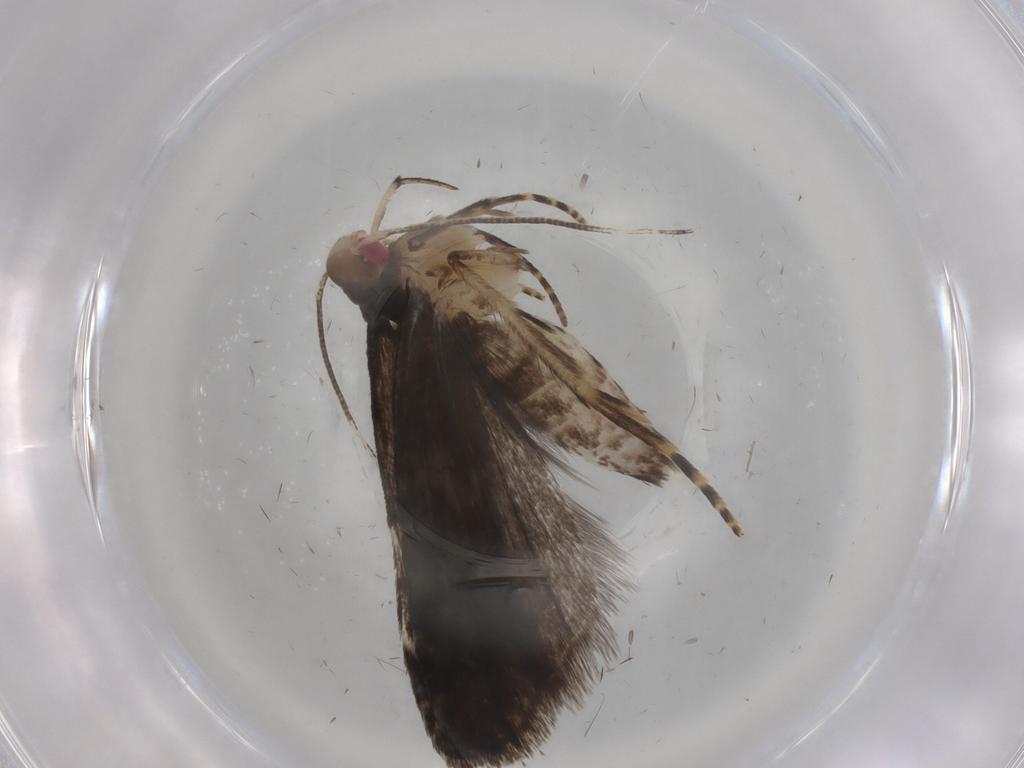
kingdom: Animalia
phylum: Arthropoda
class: Insecta
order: Lepidoptera
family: Gelechiidae
